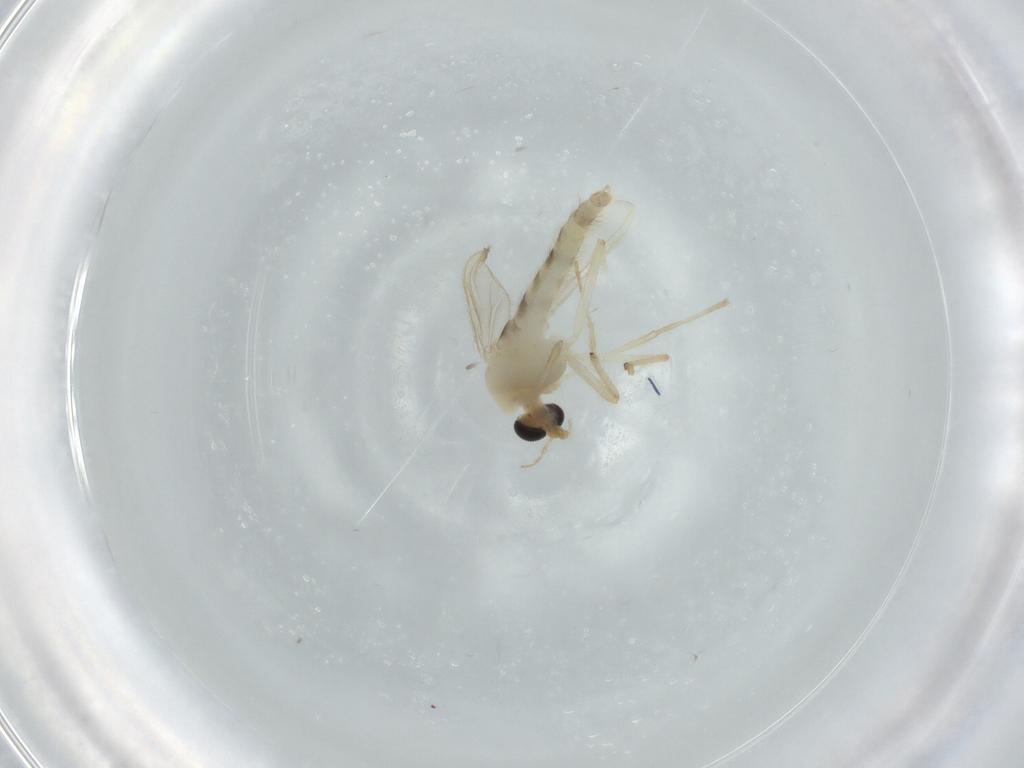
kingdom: Animalia
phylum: Arthropoda
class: Insecta
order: Diptera
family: Chironomidae
